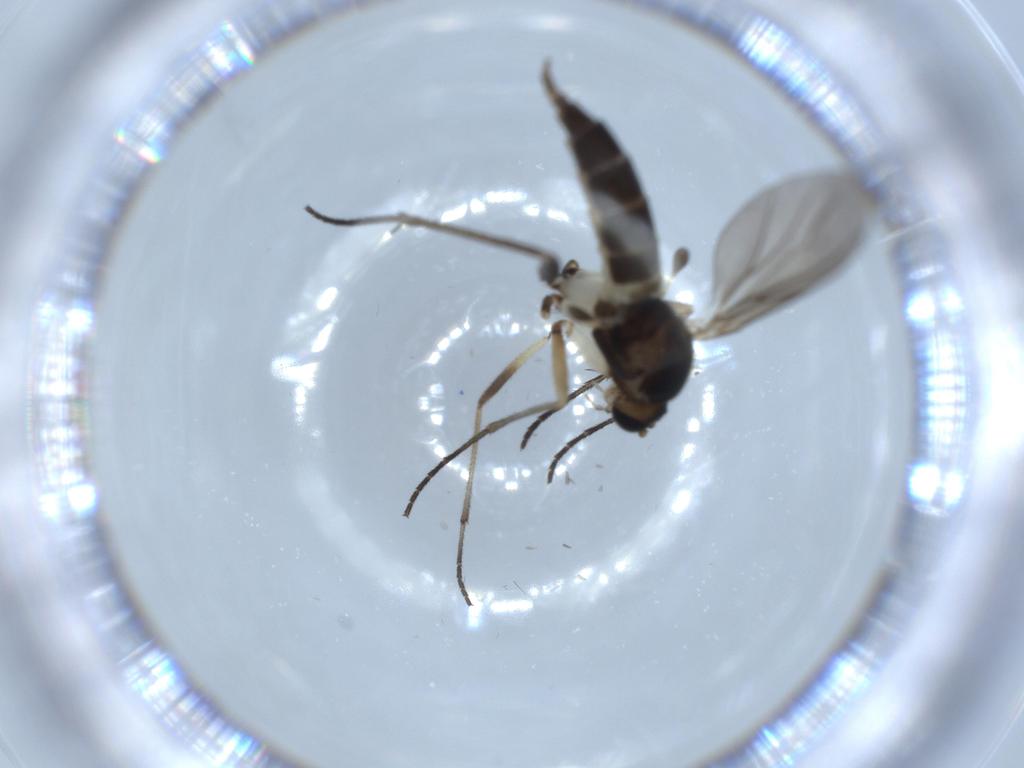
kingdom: Animalia
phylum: Arthropoda
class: Insecta
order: Diptera
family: Sciaridae
